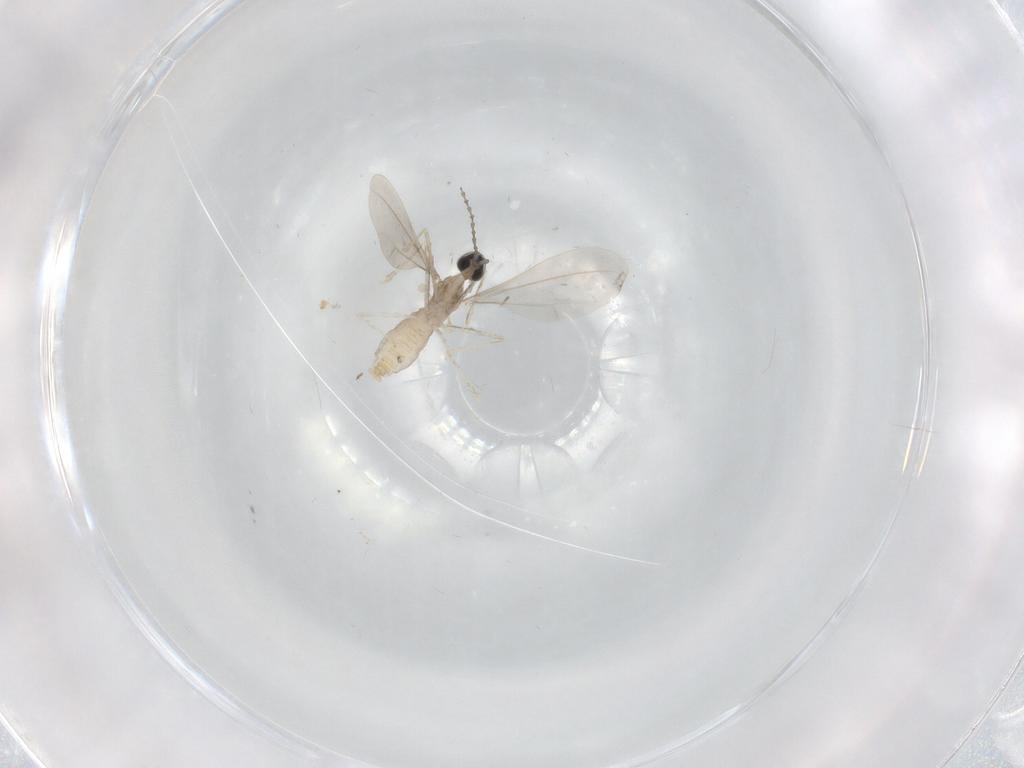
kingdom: Animalia
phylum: Arthropoda
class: Insecta
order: Diptera
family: Cecidomyiidae
